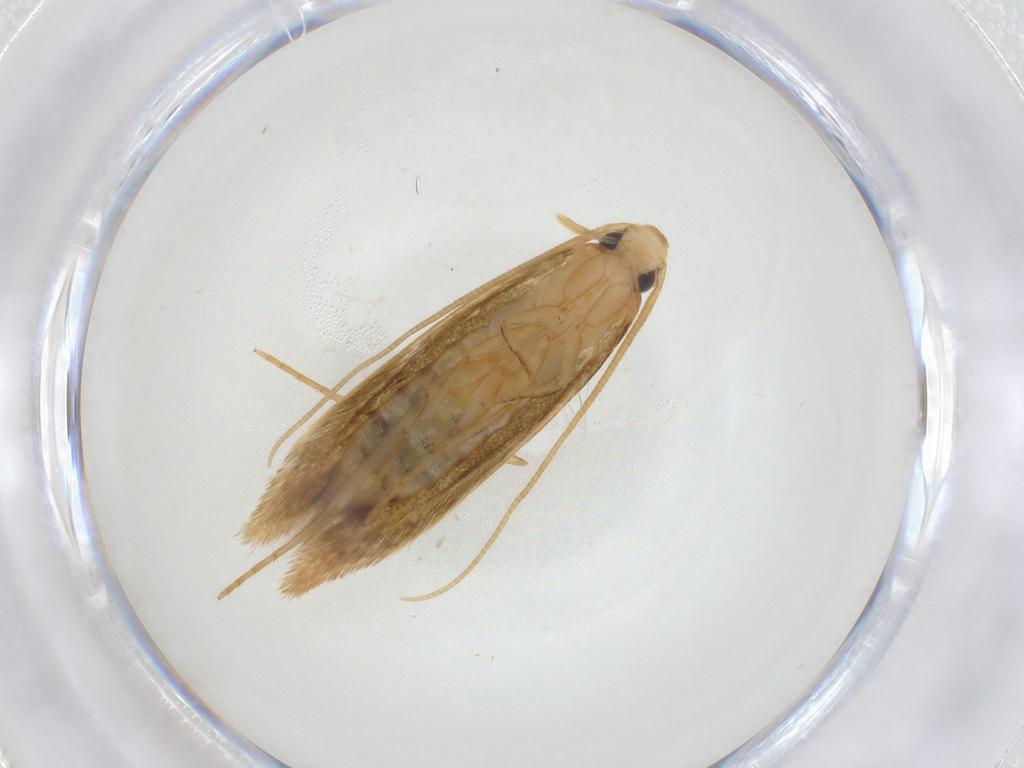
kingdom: Animalia
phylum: Arthropoda
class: Insecta
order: Lepidoptera
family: Tineidae
